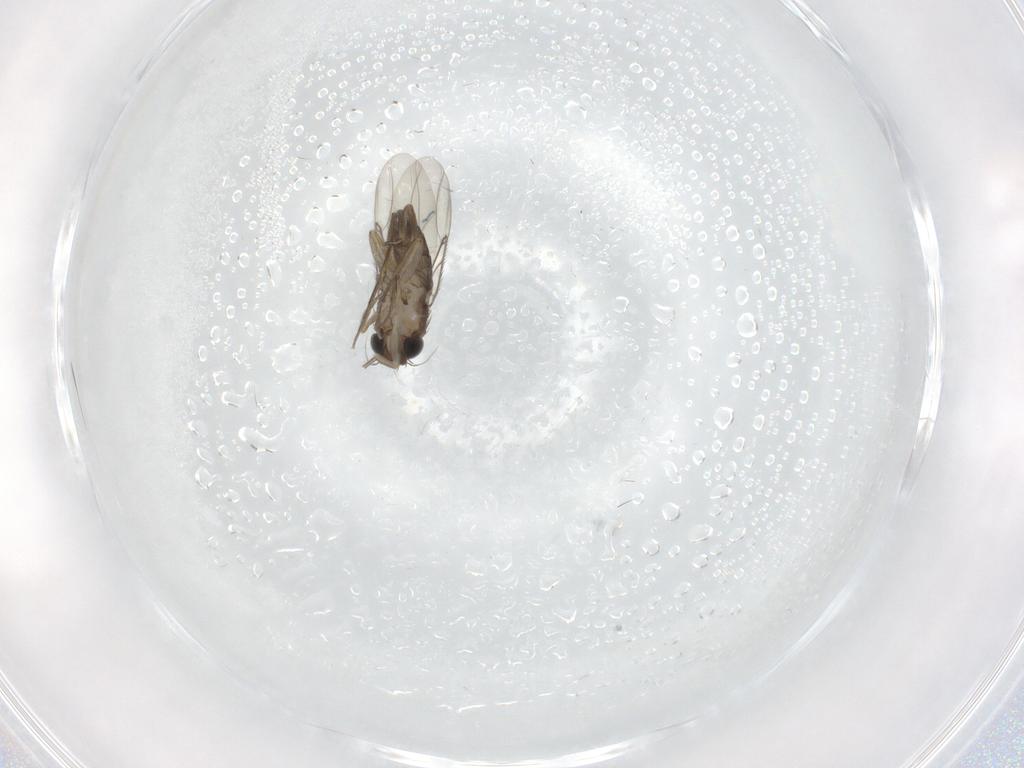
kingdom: Animalia
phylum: Arthropoda
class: Insecta
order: Diptera
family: Phoridae
